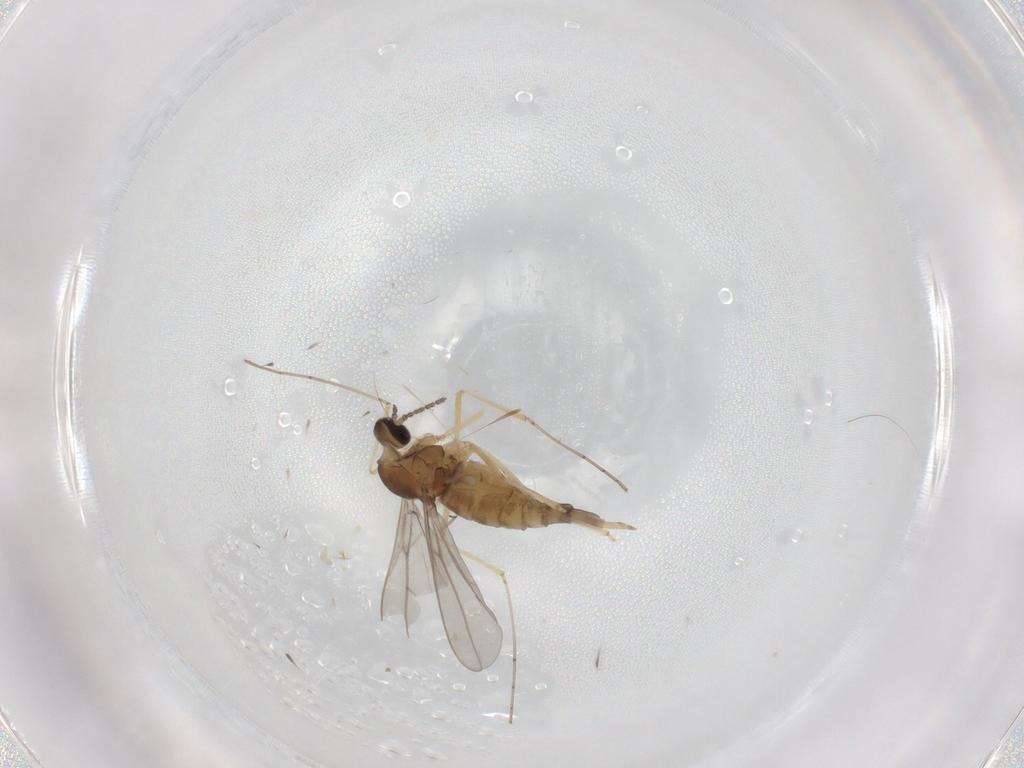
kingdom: Animalia
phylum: Arthropoda
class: Insecta
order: Diptera
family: Cecidomyiidae
